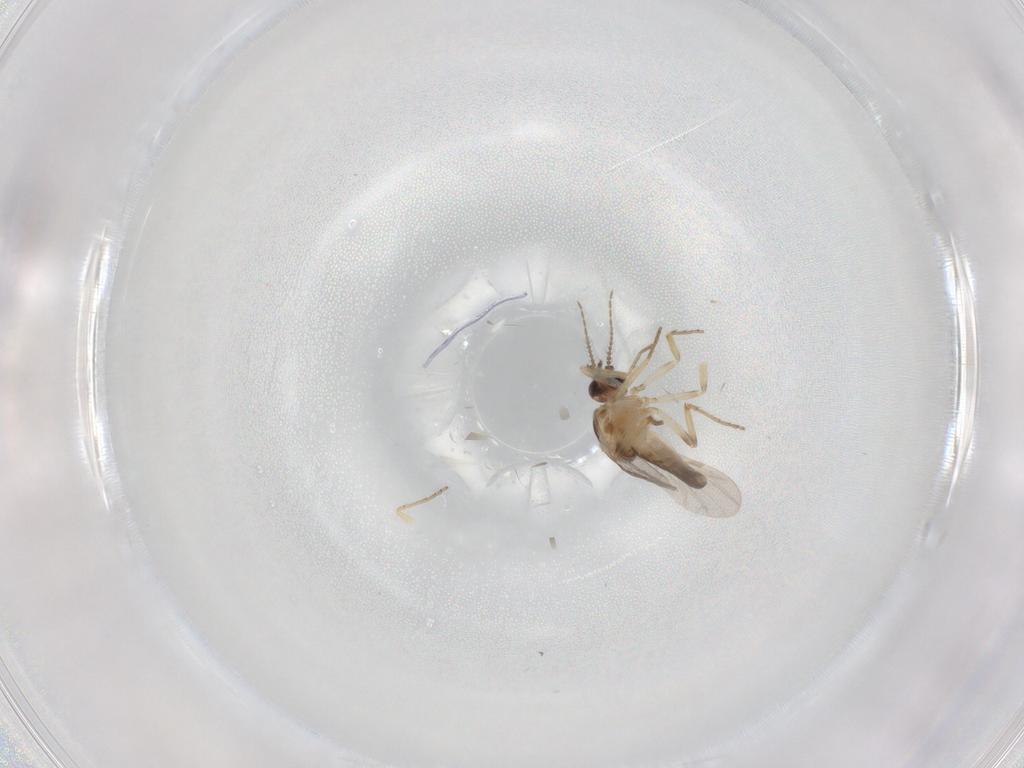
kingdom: Animalia
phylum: Arthropoda
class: Insecta
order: Diptera
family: Ceratopogonidae
